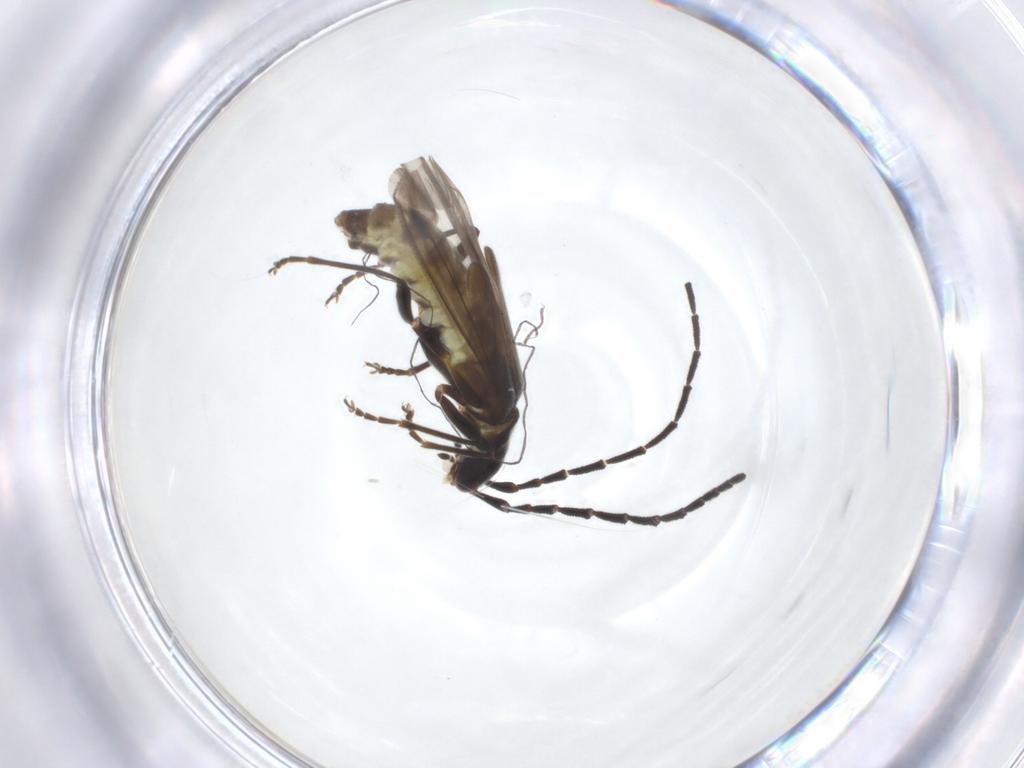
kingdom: Animalia
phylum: Arthropoda
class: Insecta
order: Coleoptera
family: Cantharidae
